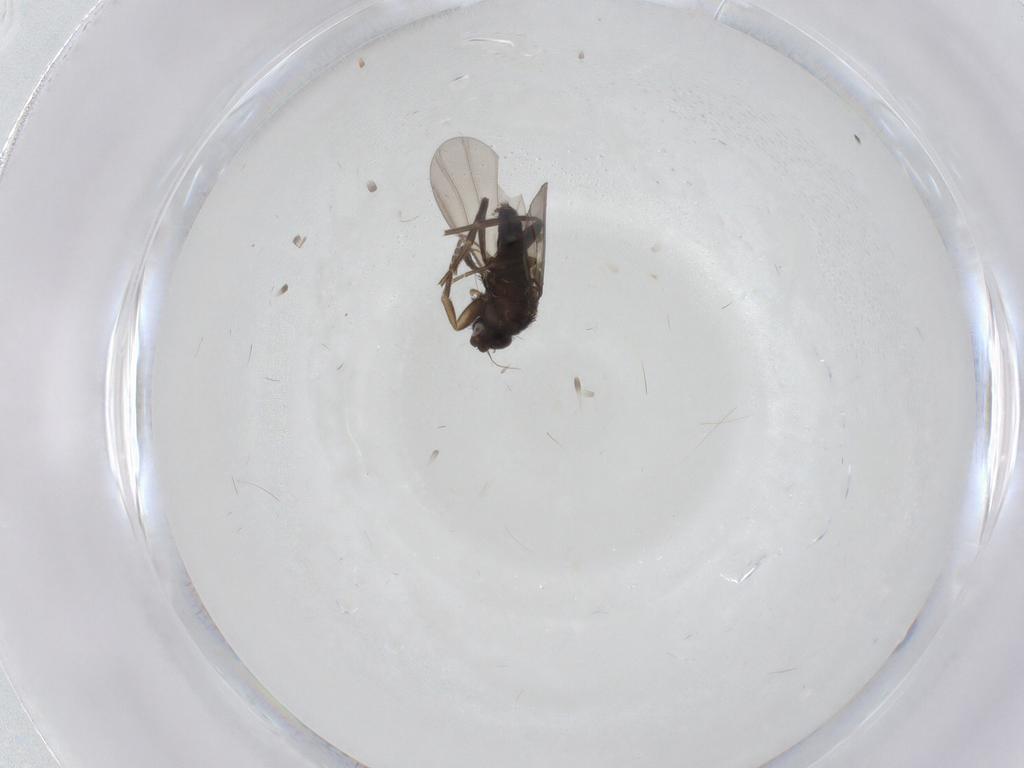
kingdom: Animalia
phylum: Arthropoda
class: Insecta
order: Diptera
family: Phoridae
